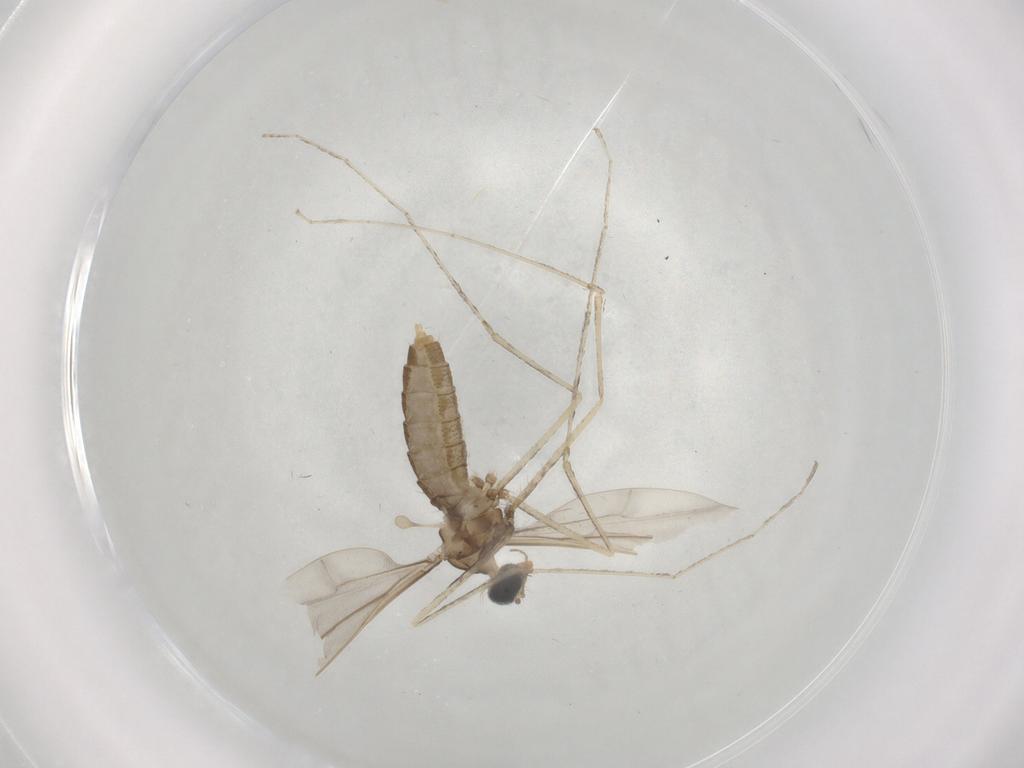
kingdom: Animalia
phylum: Arthropoda
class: Insecta
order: Diptera
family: Cecidomyiidae
